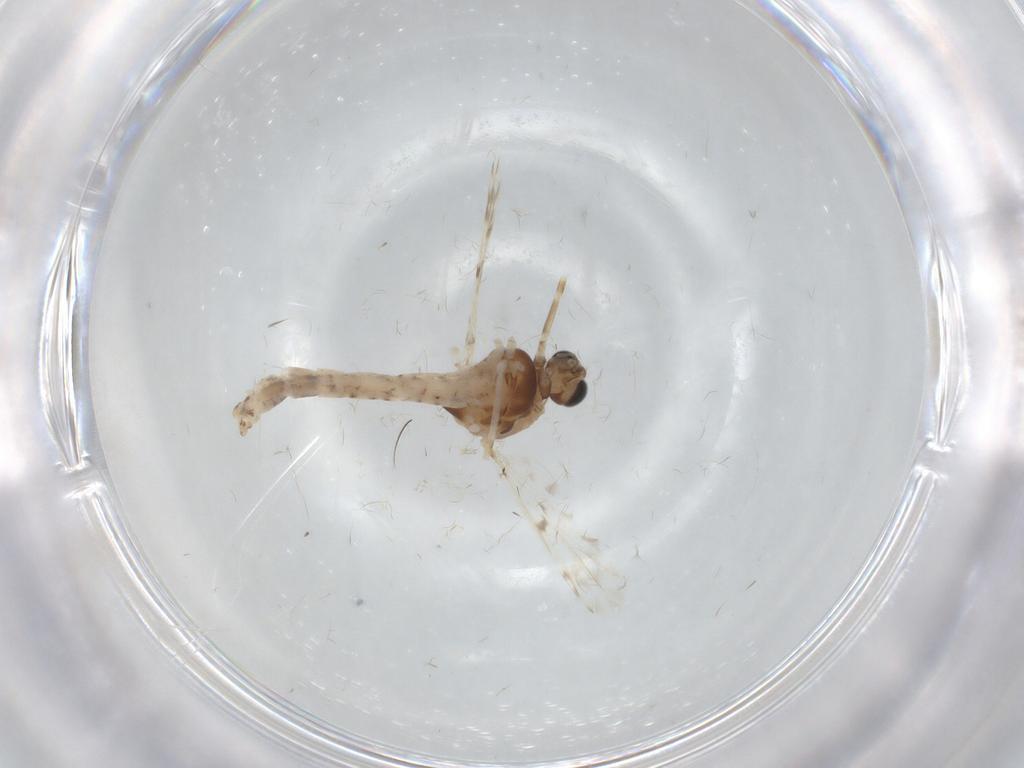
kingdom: Animalia
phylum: Arthropoda
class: Insecta
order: Diptera
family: Chironomidae
